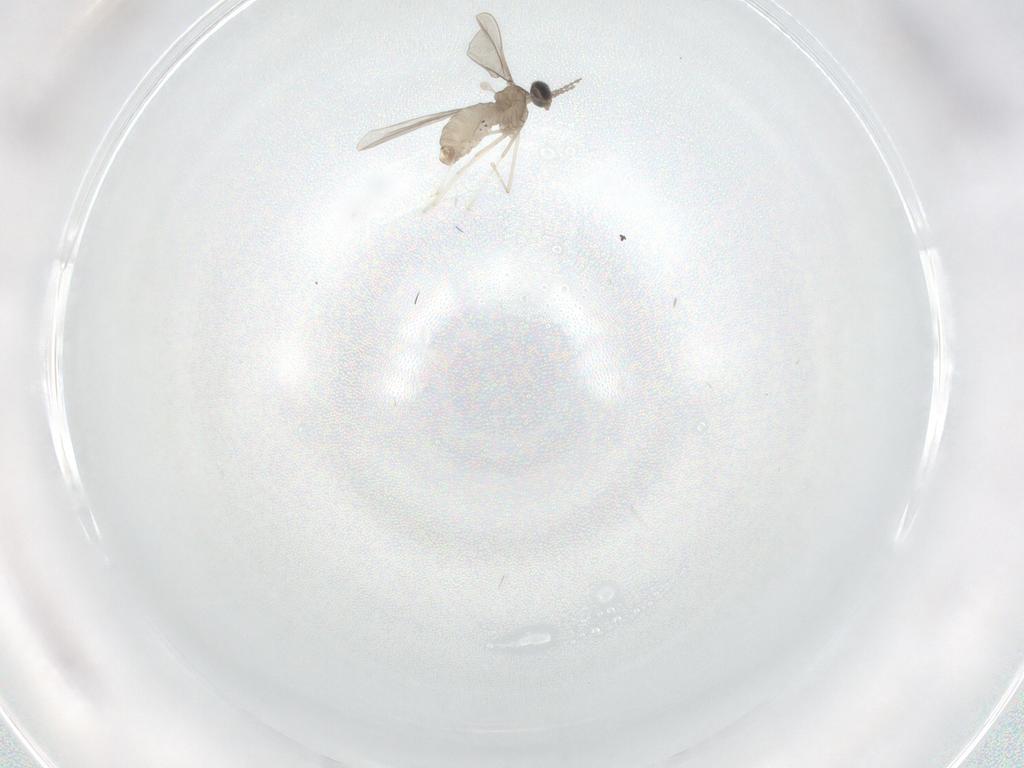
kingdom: Animalia
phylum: Arthropoda
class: Insecta
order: Diptera
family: Cecidomyiidae
